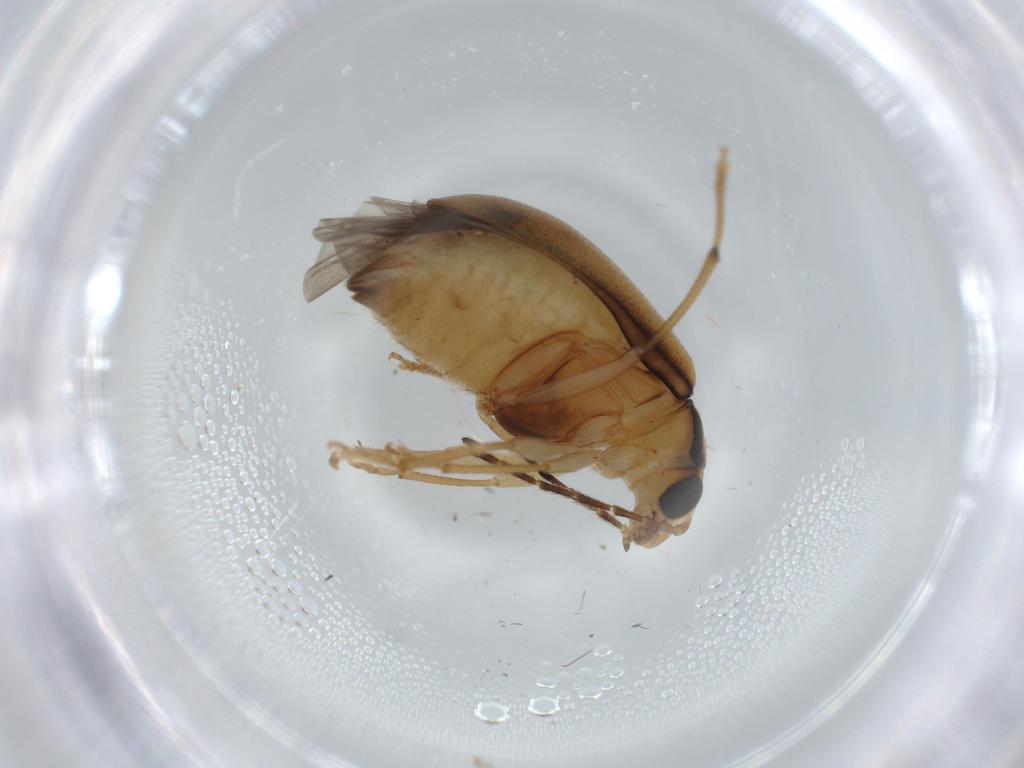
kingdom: Animalia
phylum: Arthropoda
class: Insecta
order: Coleoptera
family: Chrysomelidae
